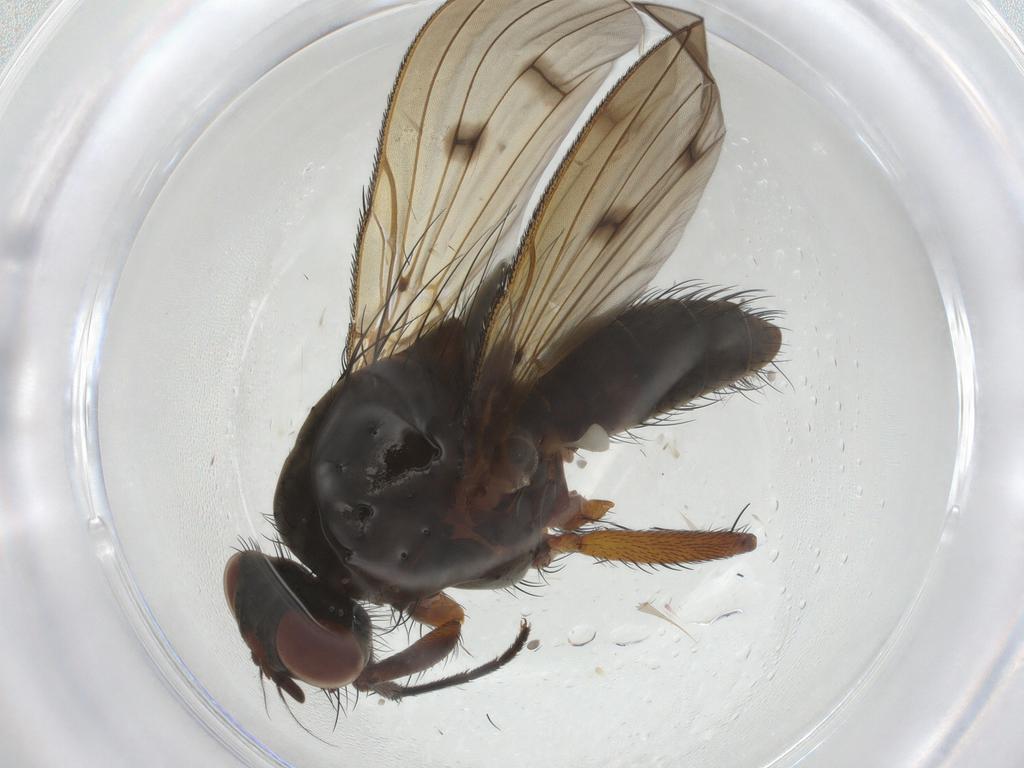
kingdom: Animalia
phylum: Arthropoda
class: Insecta
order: Diptera
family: Anthomyiidae
